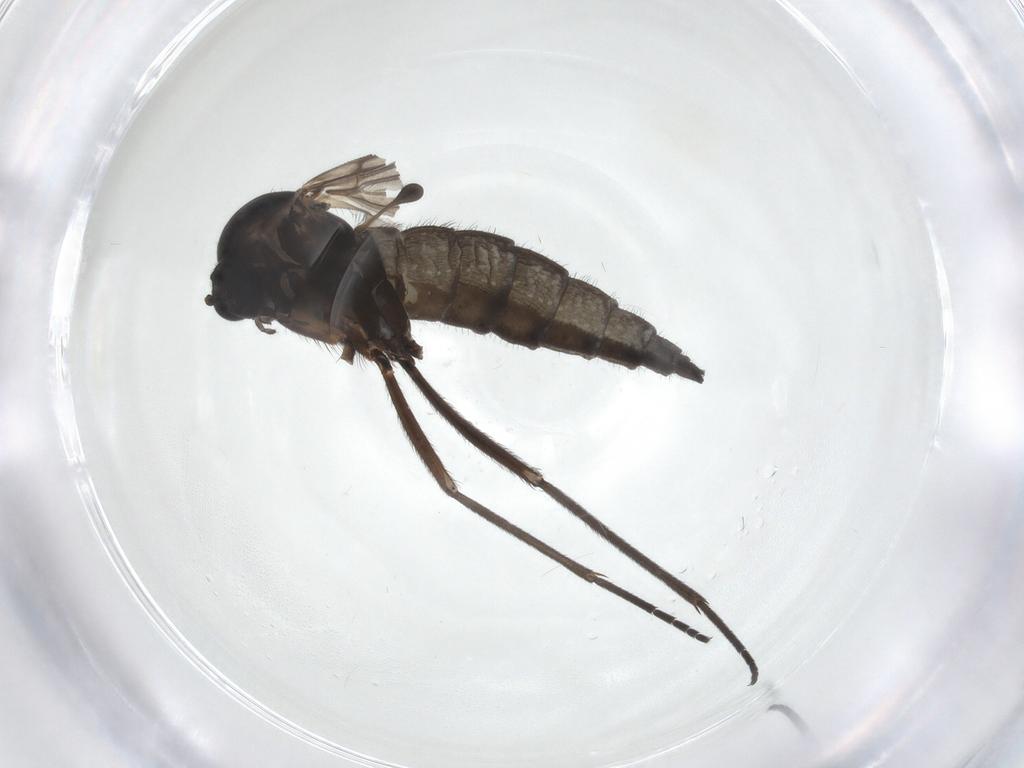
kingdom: Animalia
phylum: Arthropoda
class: Insecta
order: Diptera
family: Sciaridae
